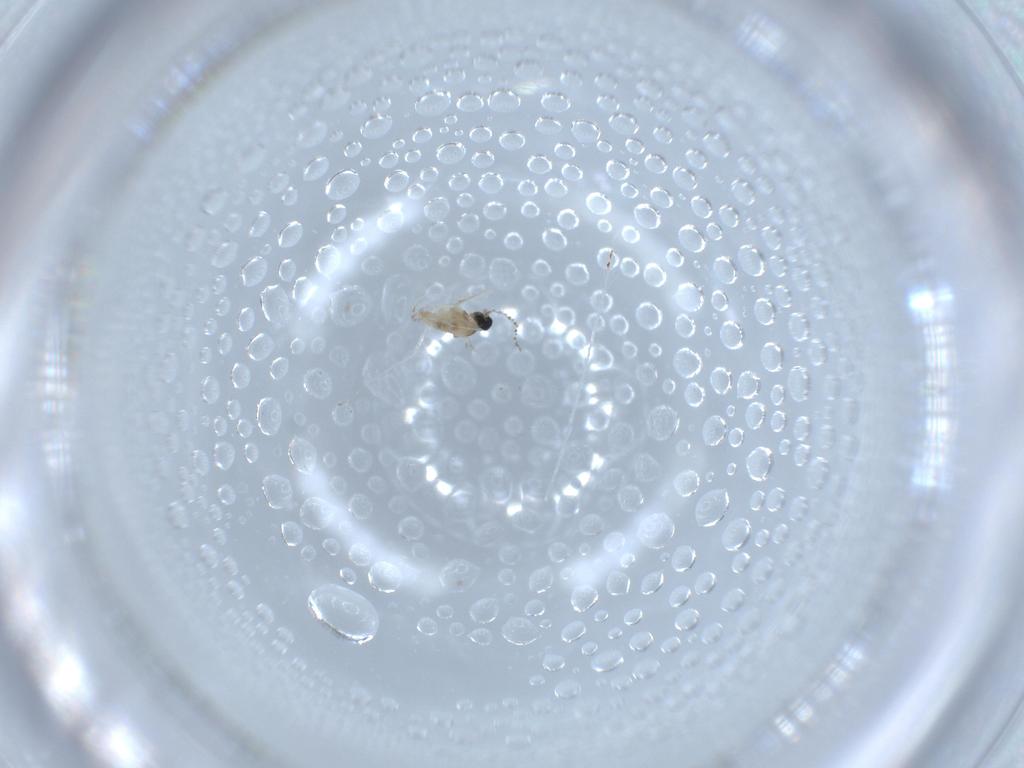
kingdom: Animalia
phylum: Arthropoda
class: Insecta
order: Diptera
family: Cecidomyiidae
